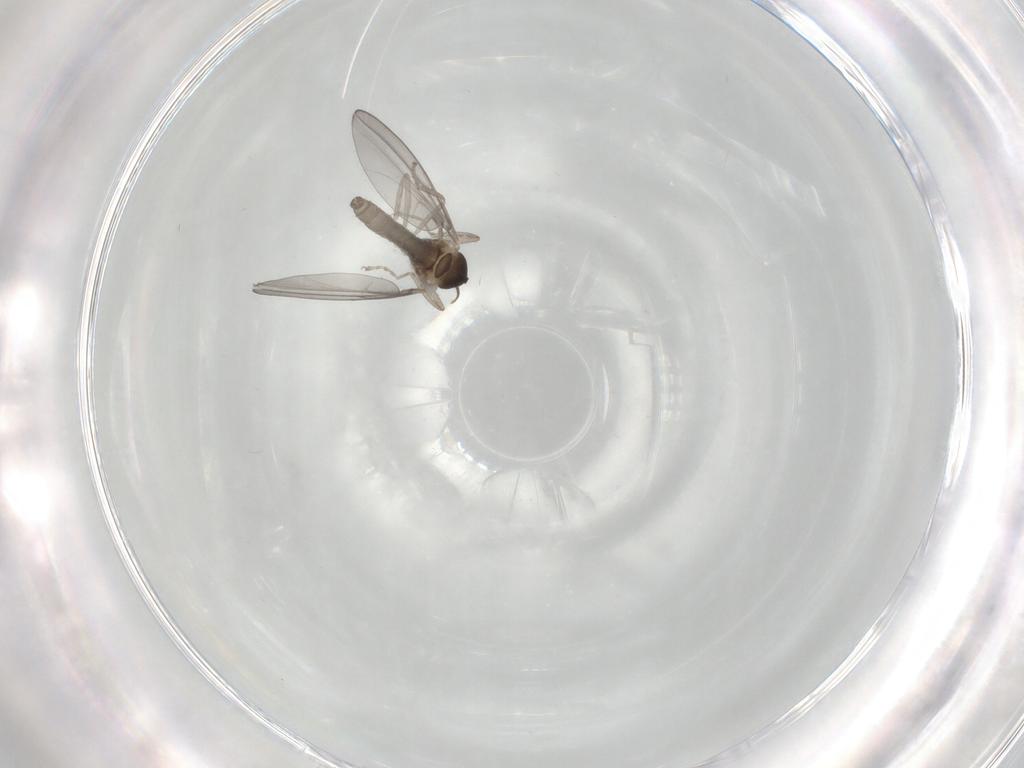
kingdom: Animalia
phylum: Arthropoda
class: Insecta
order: Diptera
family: Cecidomyiidae
